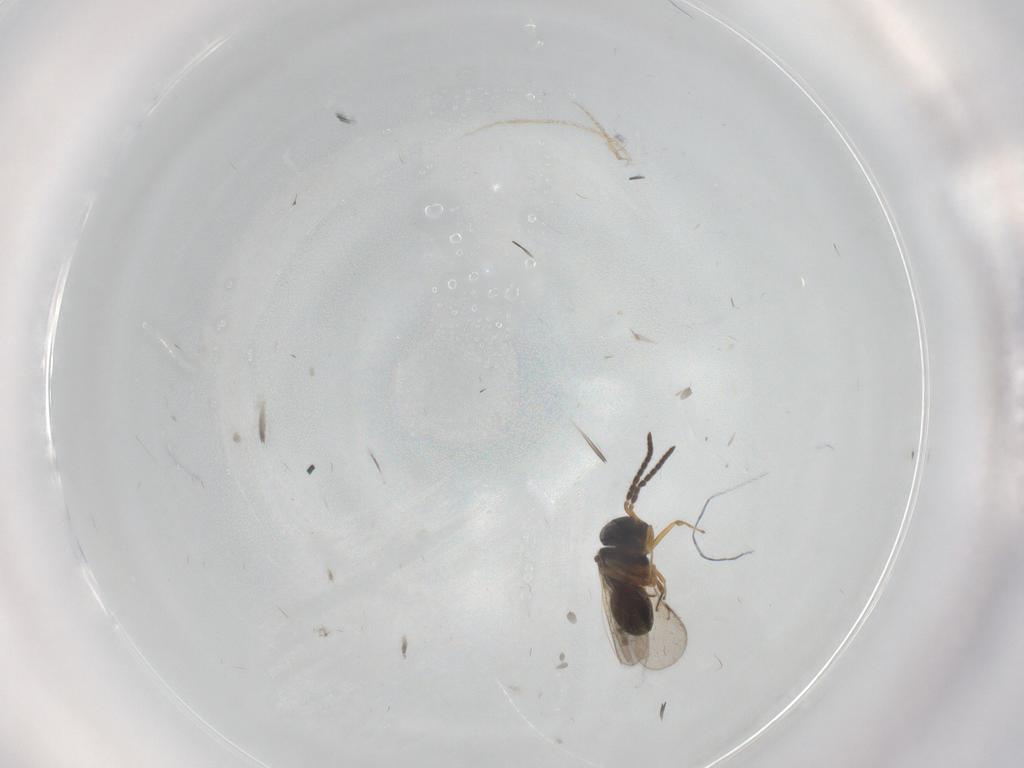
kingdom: Animalia
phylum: Arthropoda
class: Insecta
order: Hymenoptera
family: Scelionidae
